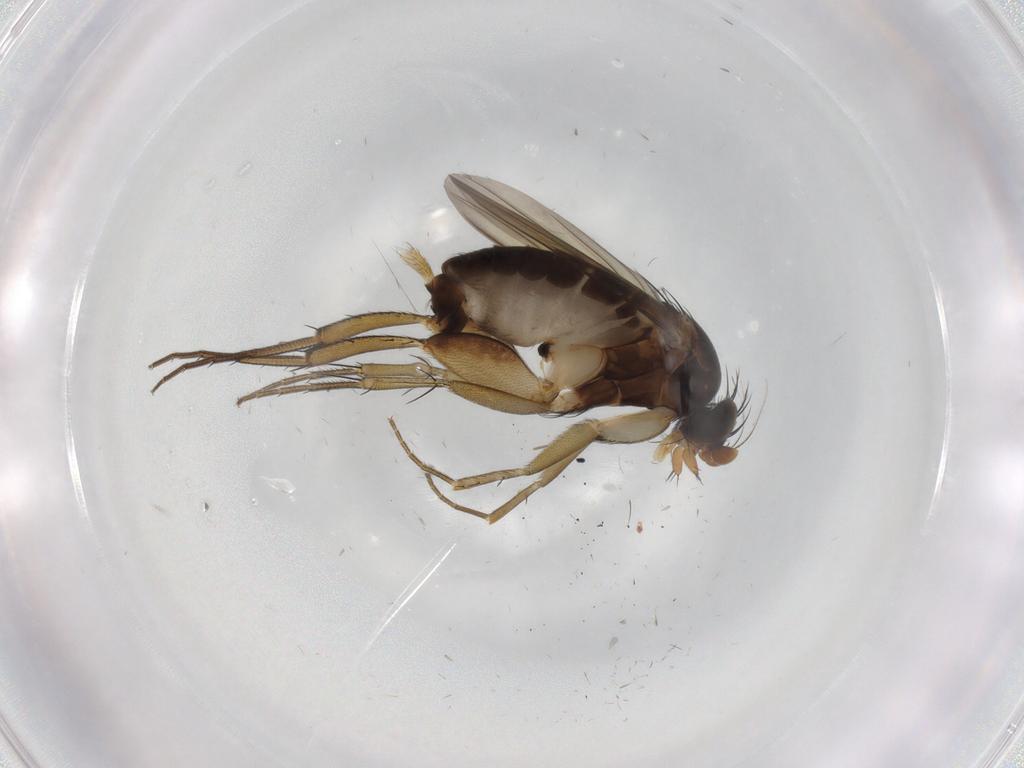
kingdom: Animalia
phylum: Arthropoda
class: Insecta
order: Diptera
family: Phoridae
